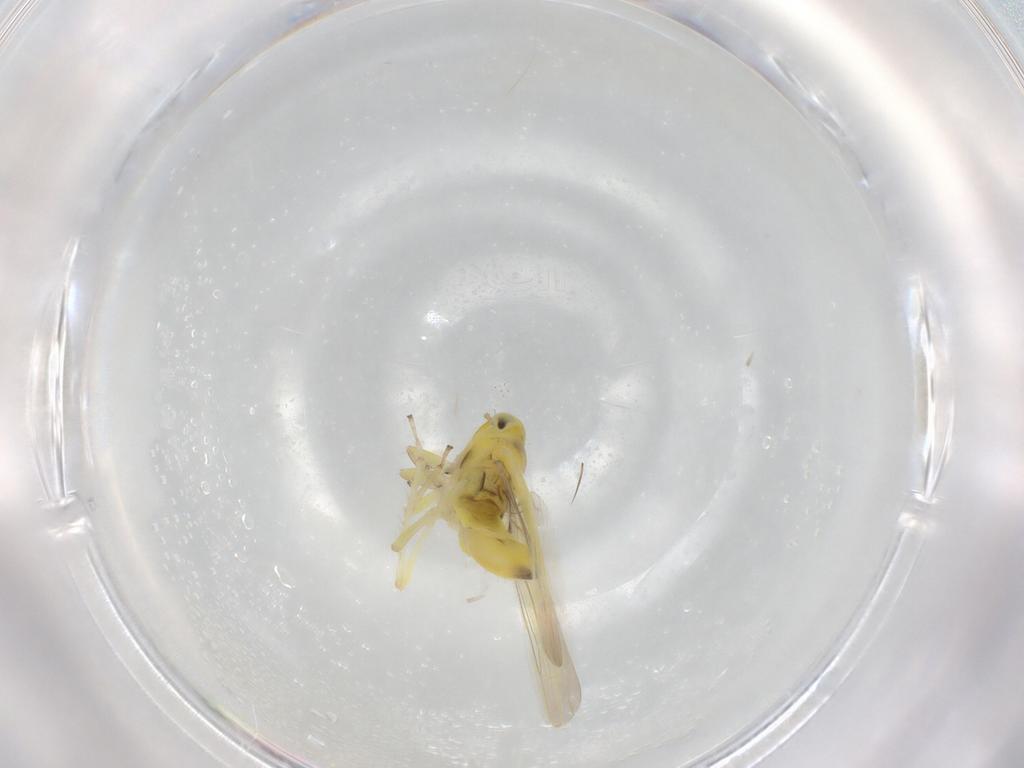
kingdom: Animalia
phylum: Arthropoda
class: Insecta
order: Hemiptera
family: Cicadellidae
